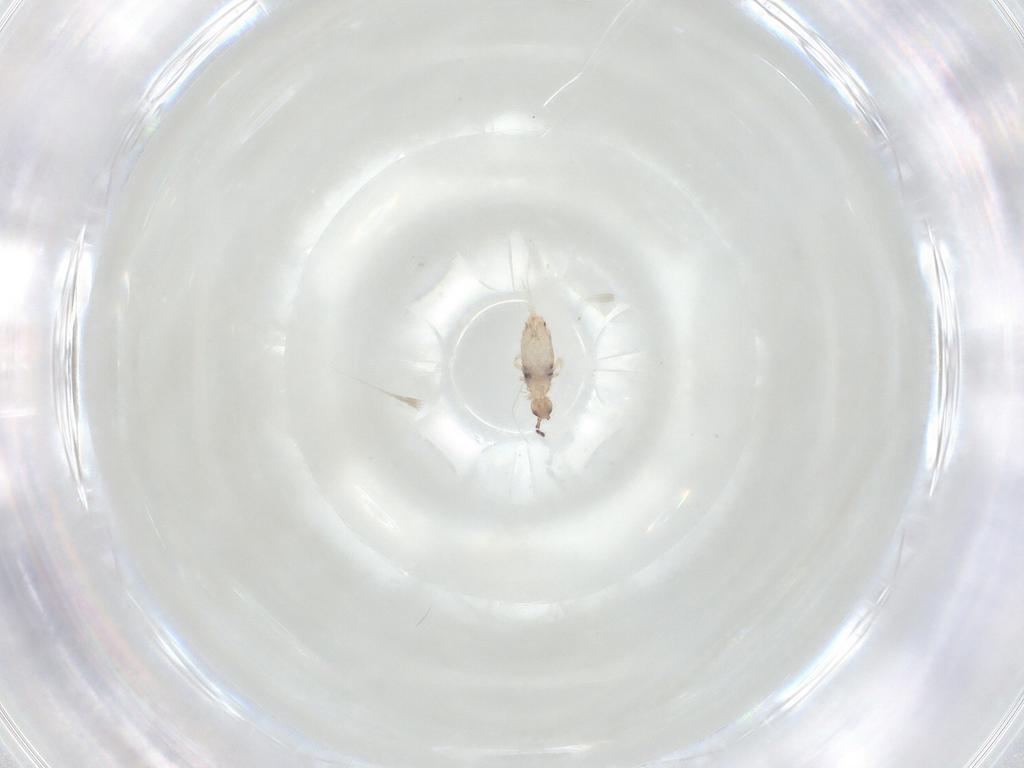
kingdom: Animalia
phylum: Arthropoda
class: Collembola
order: Entomobryomorpha
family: Entomobryidae
